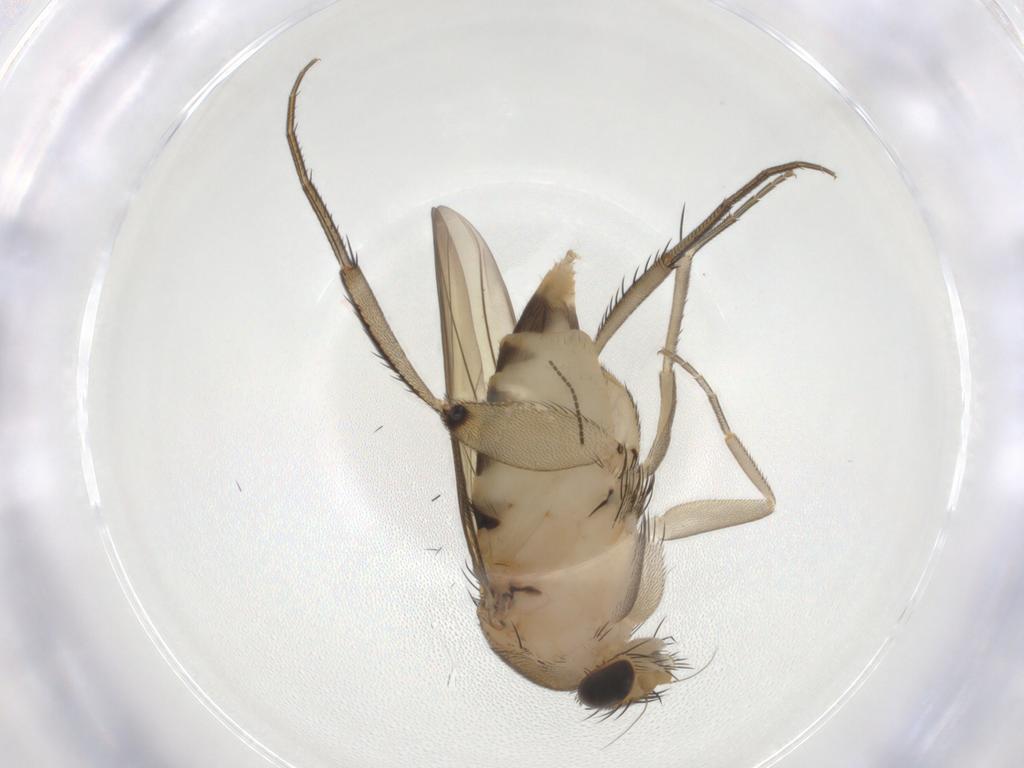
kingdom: Animalia
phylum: Arthropoda
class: Insecta
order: Diptera
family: Phoridae
